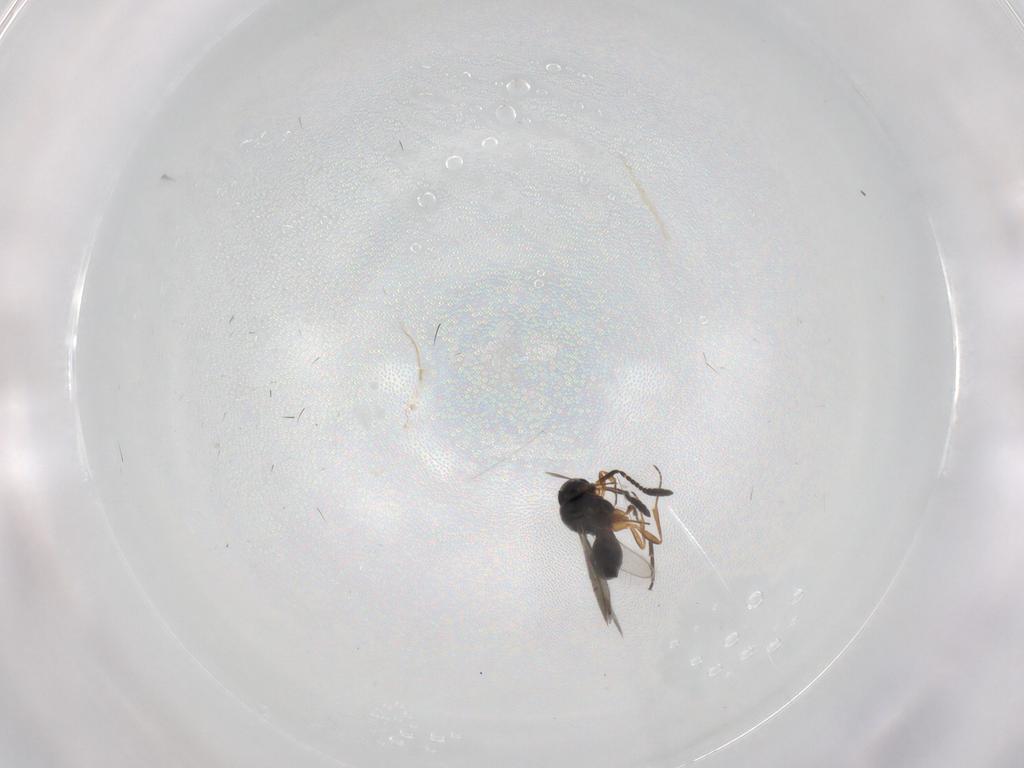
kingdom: Animalia
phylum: Arthropoda
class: Insecta
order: Hymenoptera
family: Scelionidae
